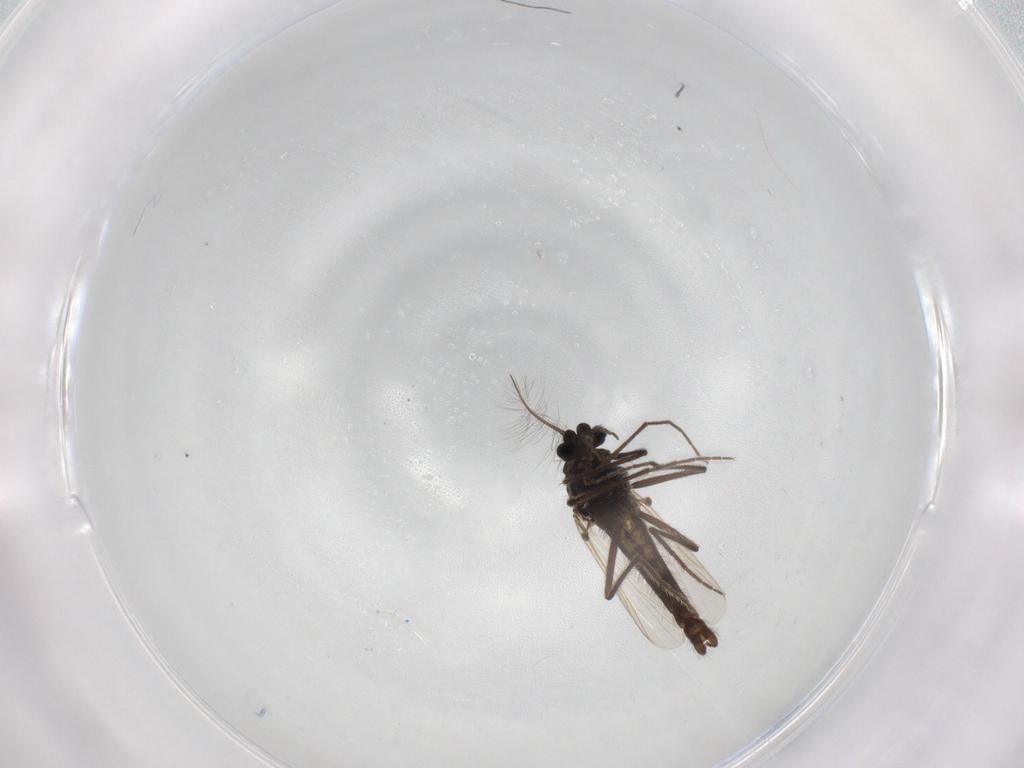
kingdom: Animalia
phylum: Arthropoda
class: Insecta
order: Diptera
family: Chironomidae
